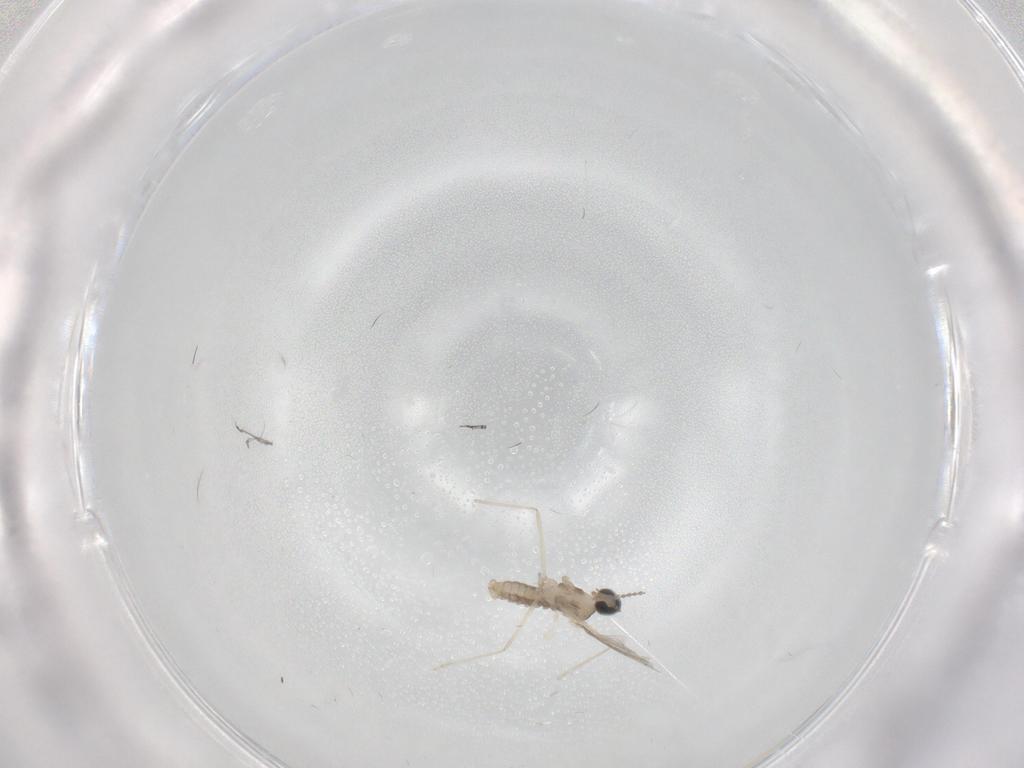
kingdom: Animalia
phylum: Arthropoda
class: Insecta
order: Diptera
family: Cecidomyiidae
